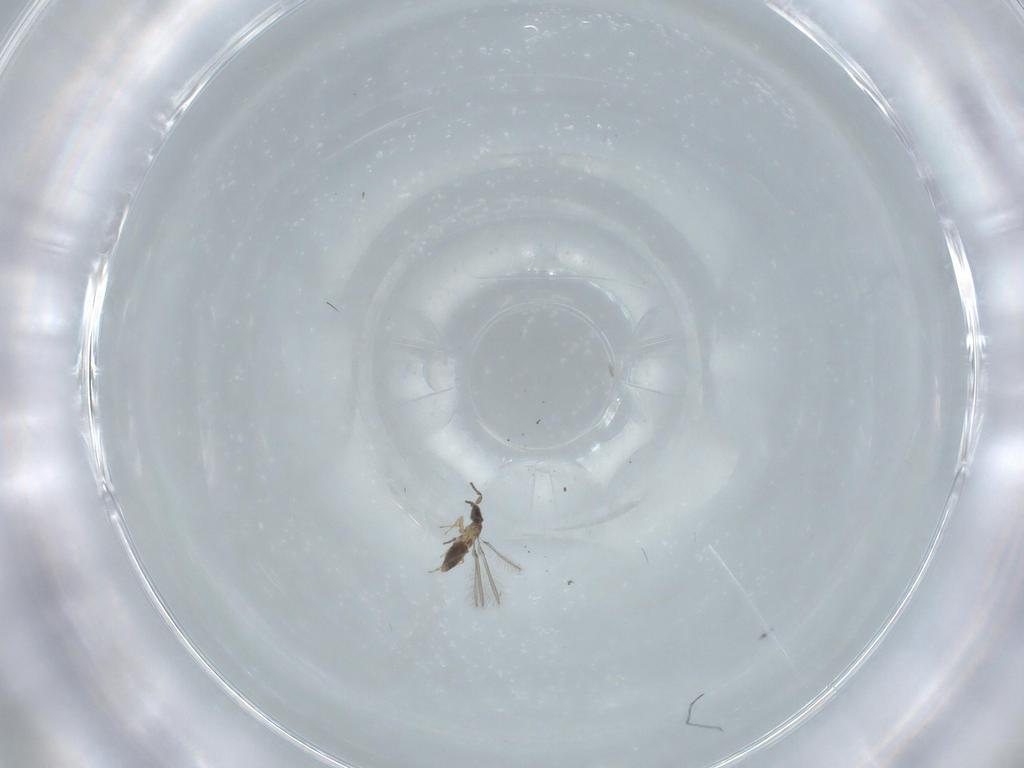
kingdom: Animalia
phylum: Arthropoda
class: Insecta
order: Hymenoptera
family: Mymaridae
